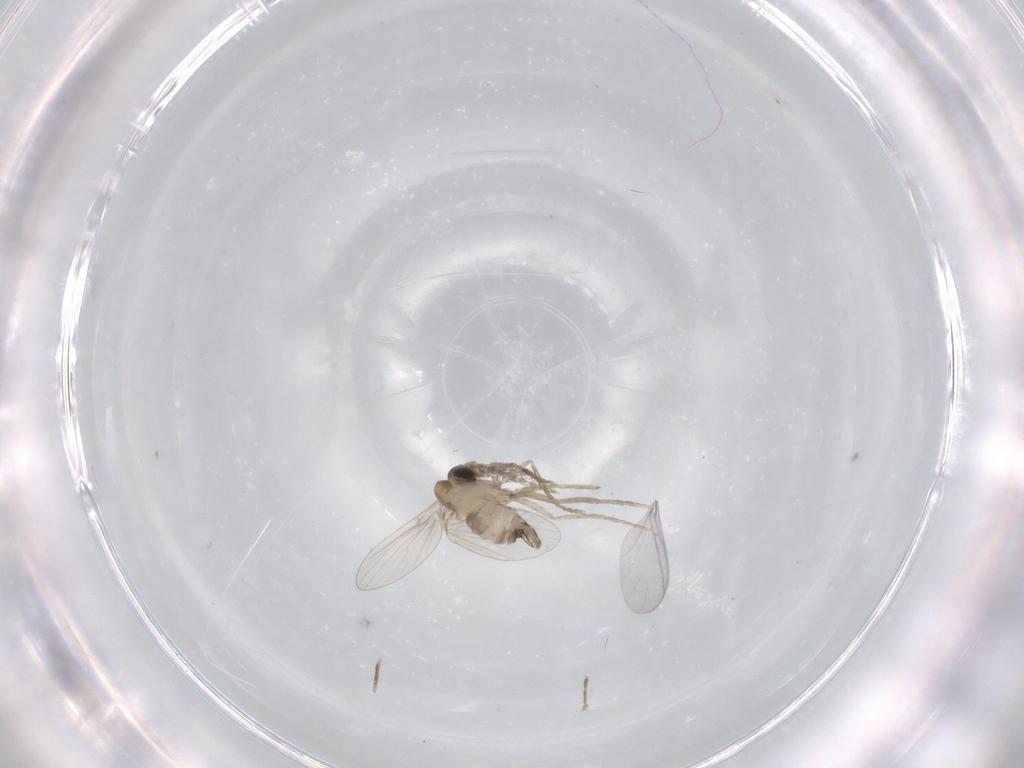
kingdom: Animalia
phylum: Arthropoda
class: Insecta
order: Diptera
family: Psychodidae
